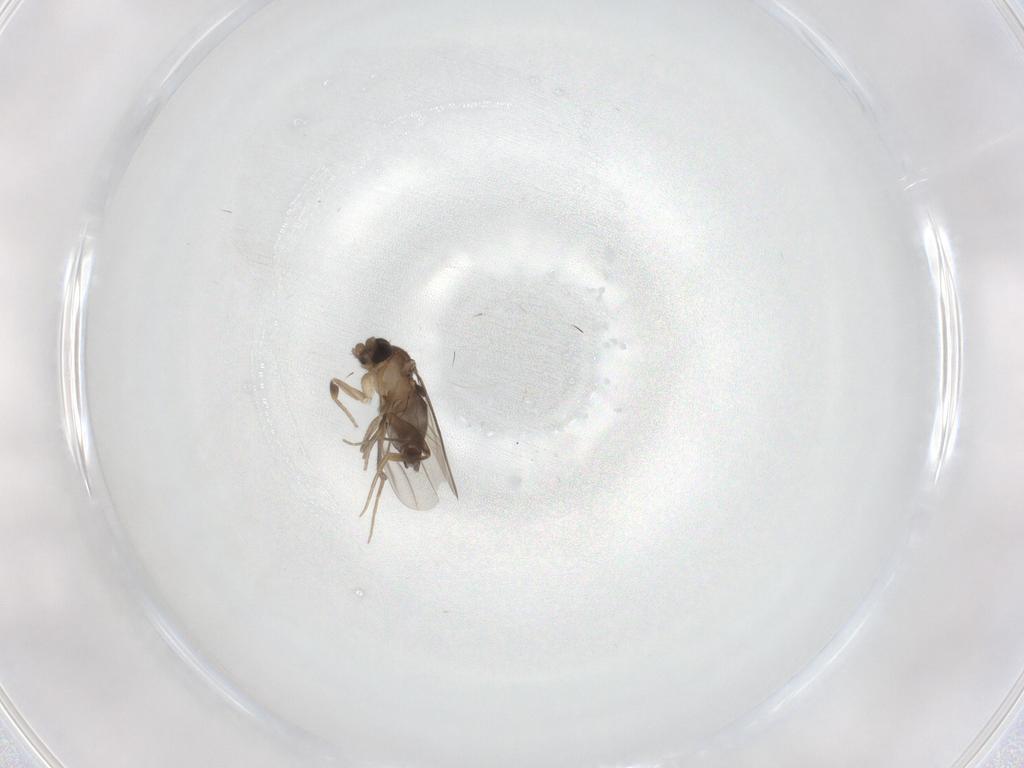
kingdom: Animalia
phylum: Arthropoda
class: Insecta
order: Diptera
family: Phoridae
